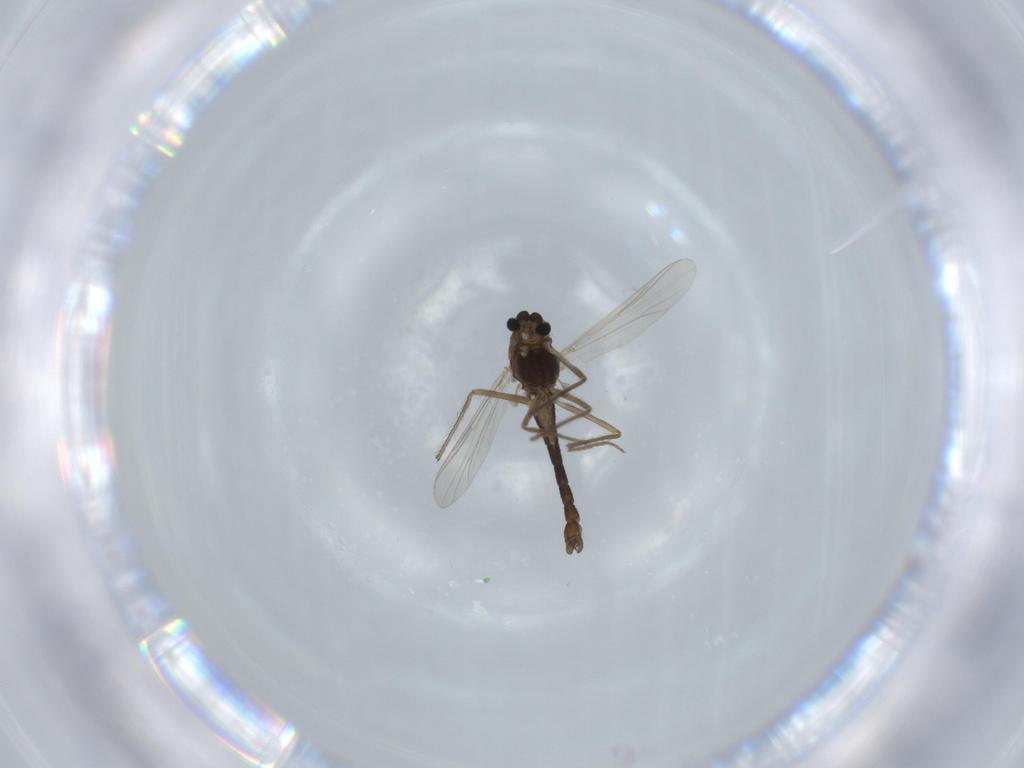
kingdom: Animalia
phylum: Arthropoda
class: Insecta
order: Diptera
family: Chironomidae
